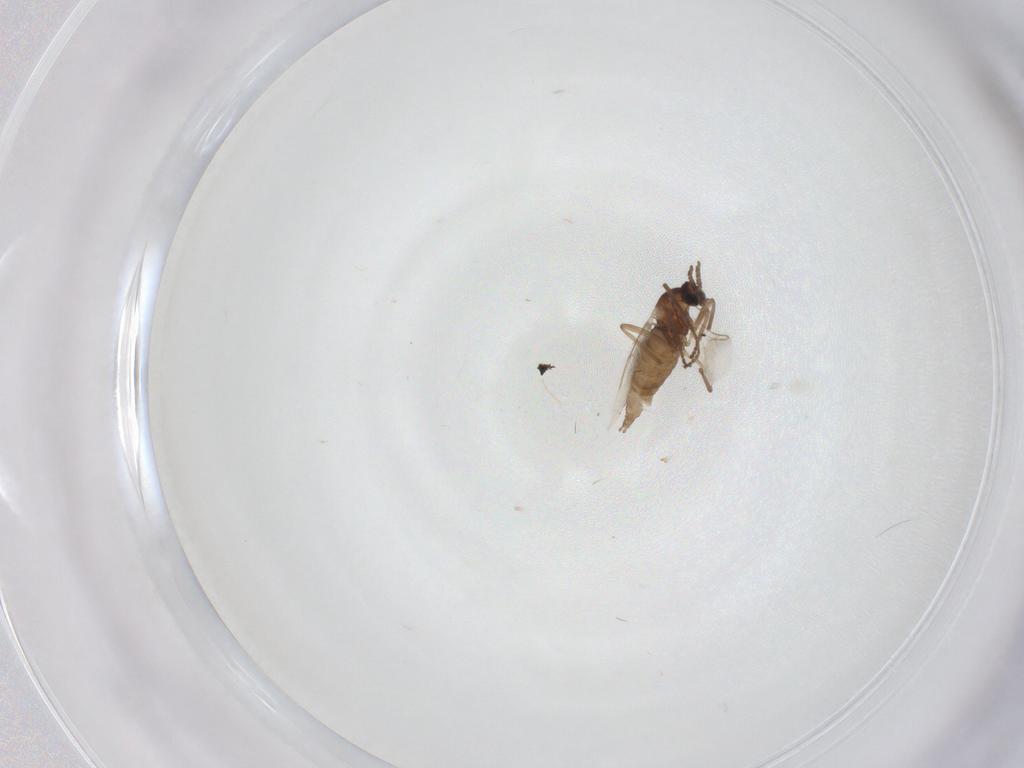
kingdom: Animalia
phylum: Arthropoda
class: Insecta
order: Diptera
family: Cecidomyiidae
